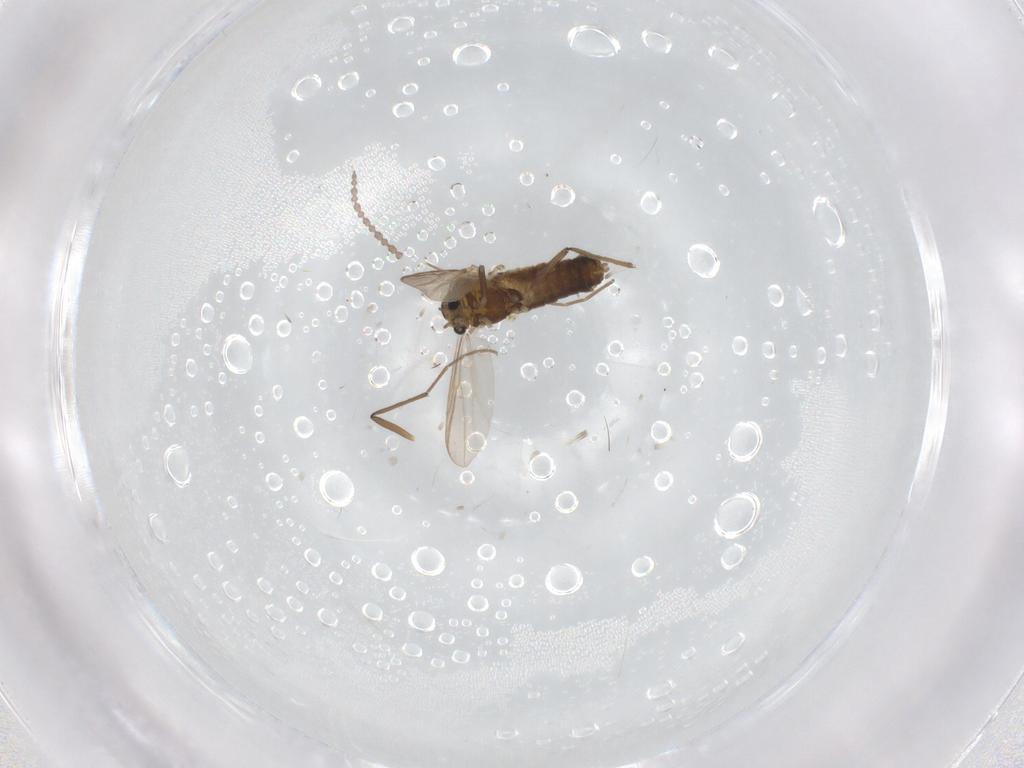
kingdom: Animalia
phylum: Arthropoda
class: Insecta
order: Diptera
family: Chironomidae
